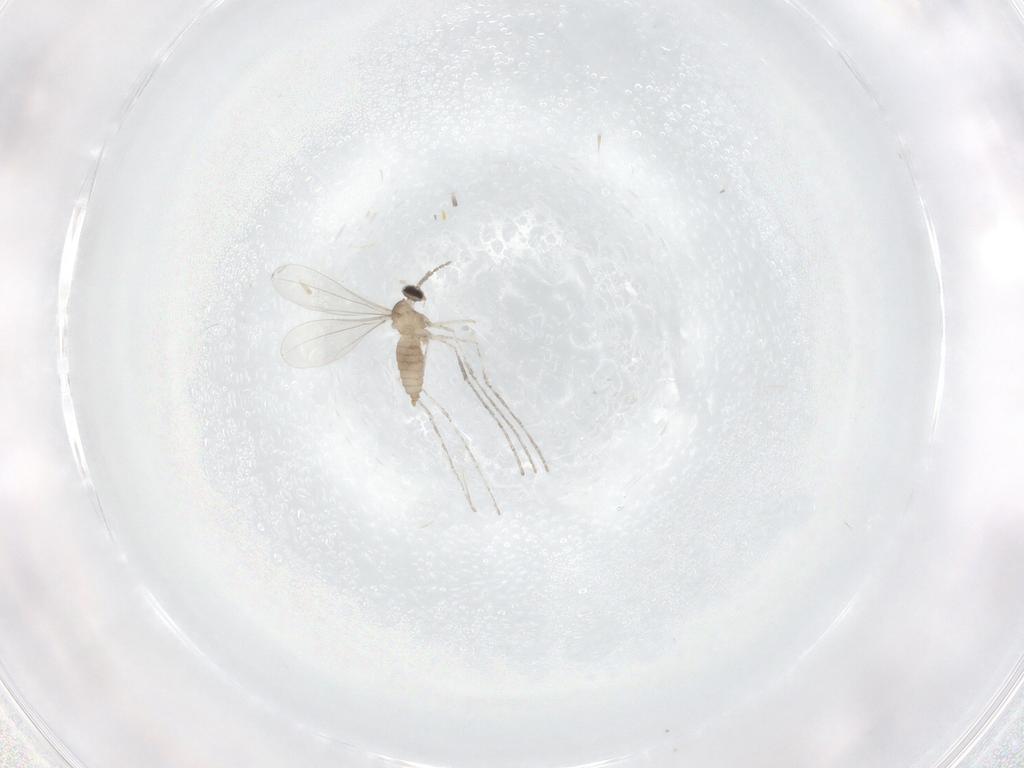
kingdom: Animalia
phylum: Arthropoda
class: Insecta
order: Diptera
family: Cecidomyiidae
